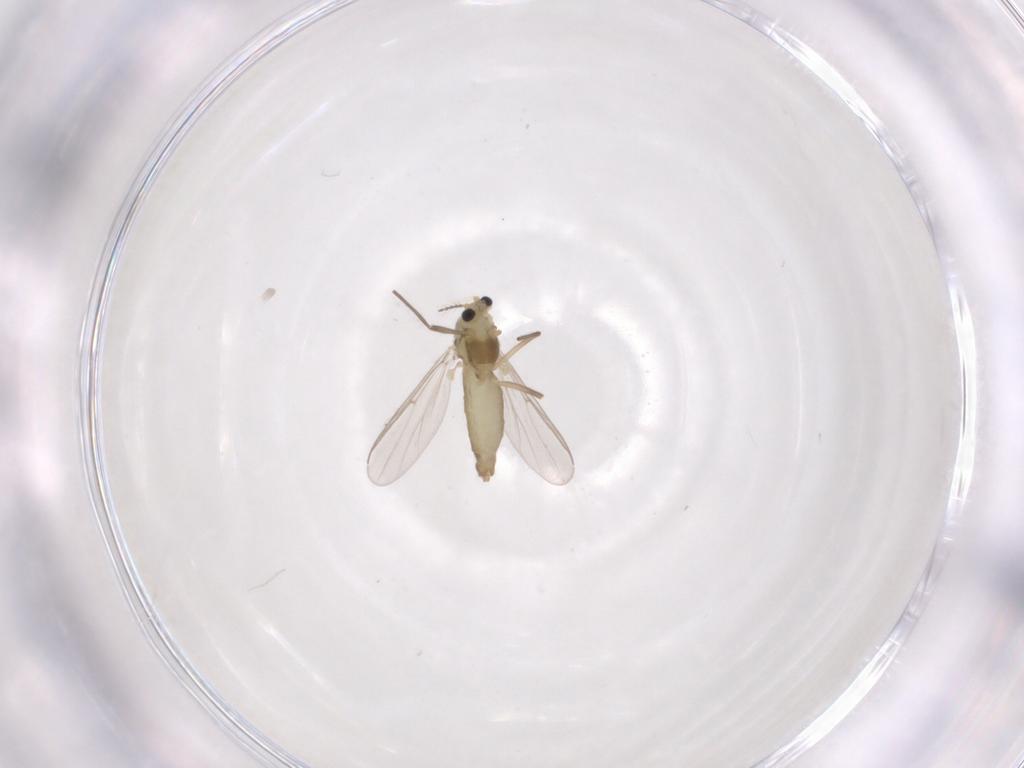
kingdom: Animalia
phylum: Arthropoda
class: Insecta
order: Diptera
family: Chironomidae
